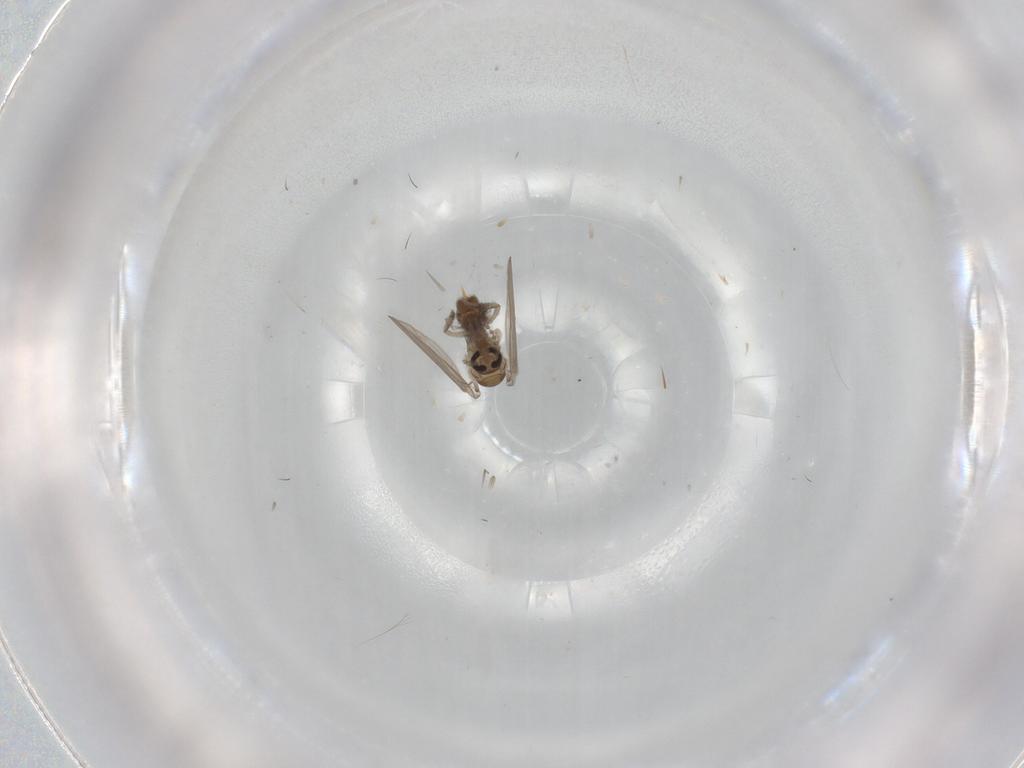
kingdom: Animalia
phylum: Arthropoda
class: Insecta
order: Diptera
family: Psychodidae
